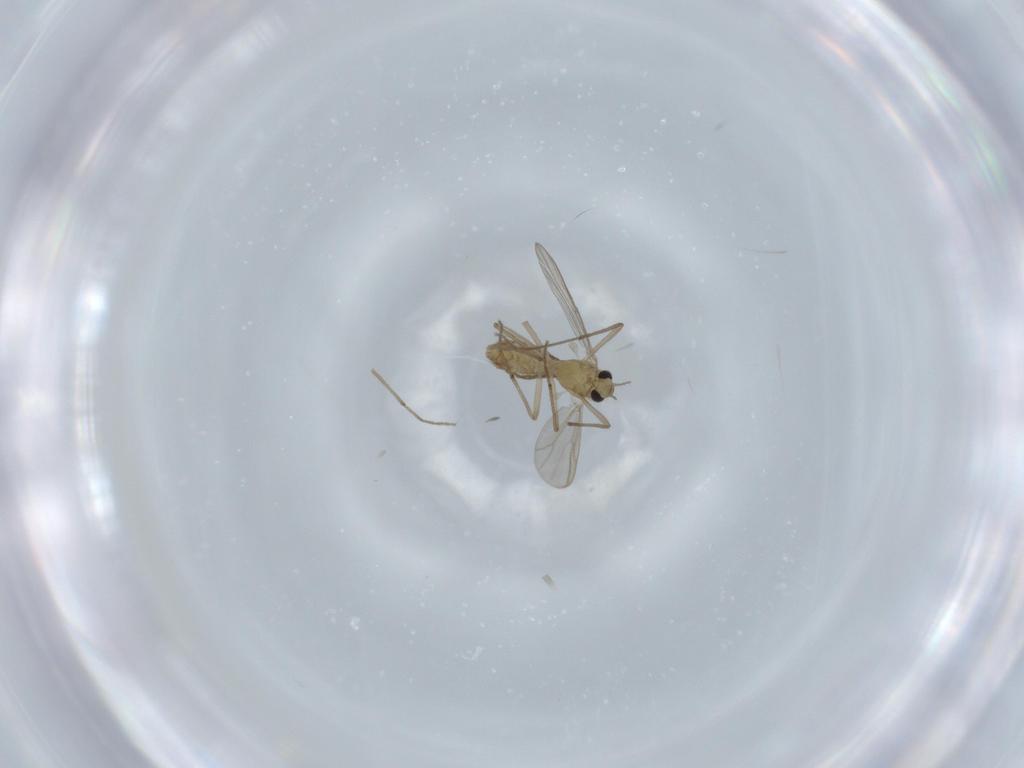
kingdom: Animalia
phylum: Arthropoda
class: Insecta
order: Diptera
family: Chironomidae
